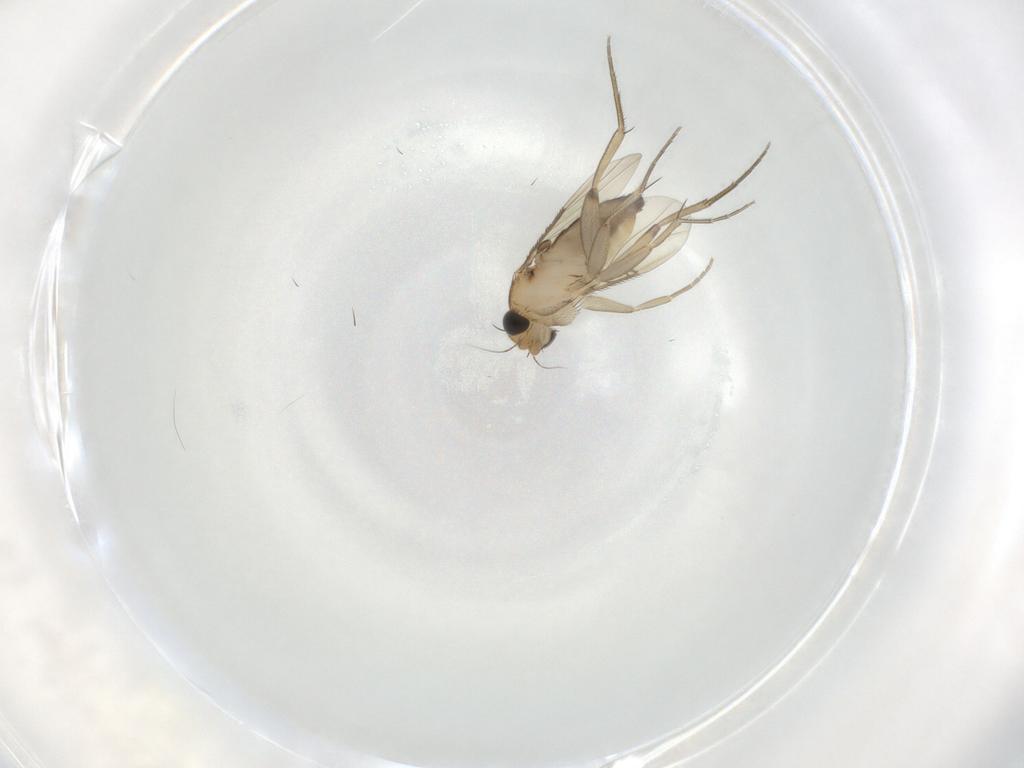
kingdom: Animalia
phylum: Arthropoda
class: Insecta
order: Diptera
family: Phoridae
